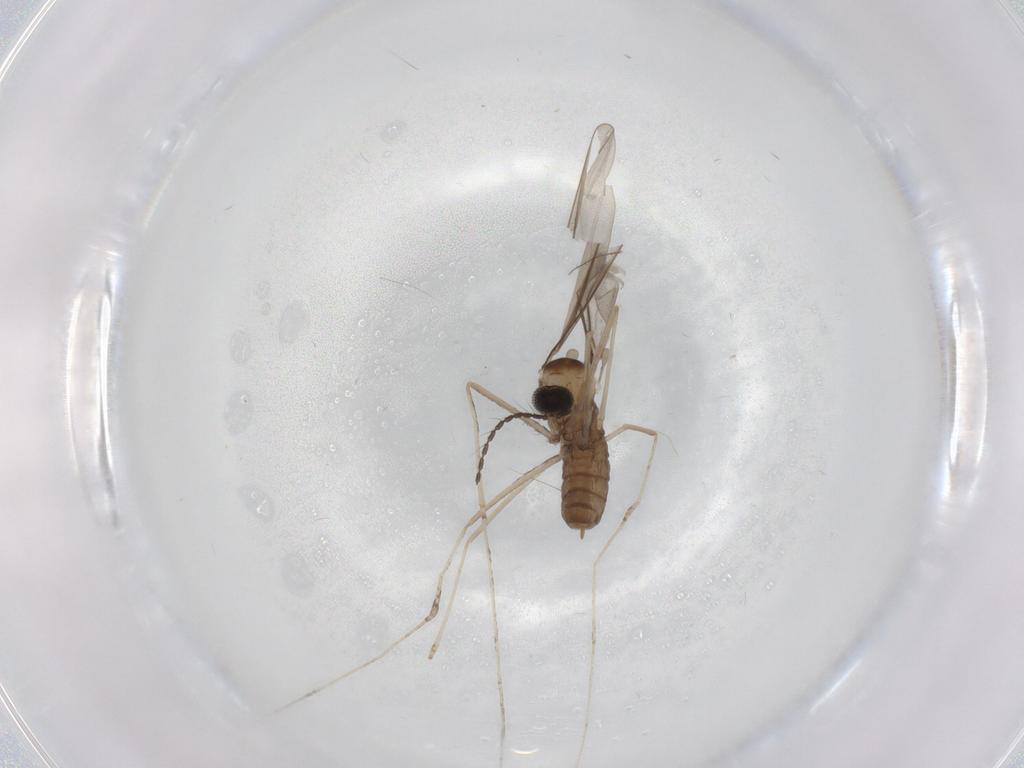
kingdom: Animalia
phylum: Arthropoda
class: Insecta
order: Diptera
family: Cecidomyiidae
